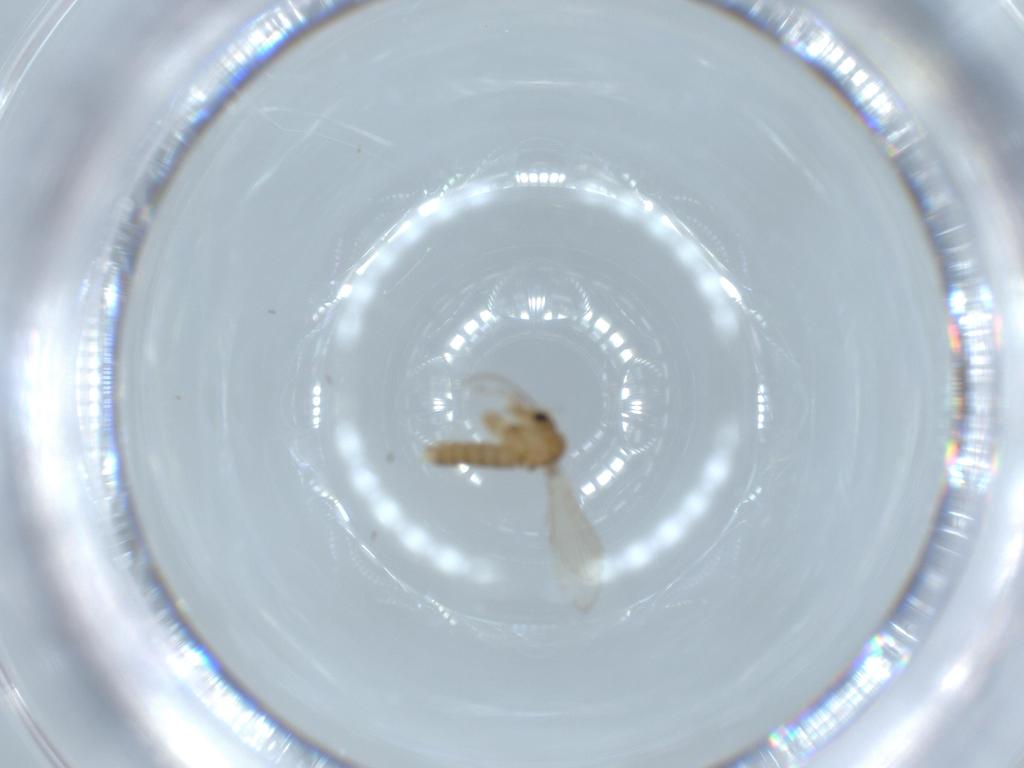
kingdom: Animalia
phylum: Arthropoda
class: Insecta
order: Diptera
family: Psychodidae
